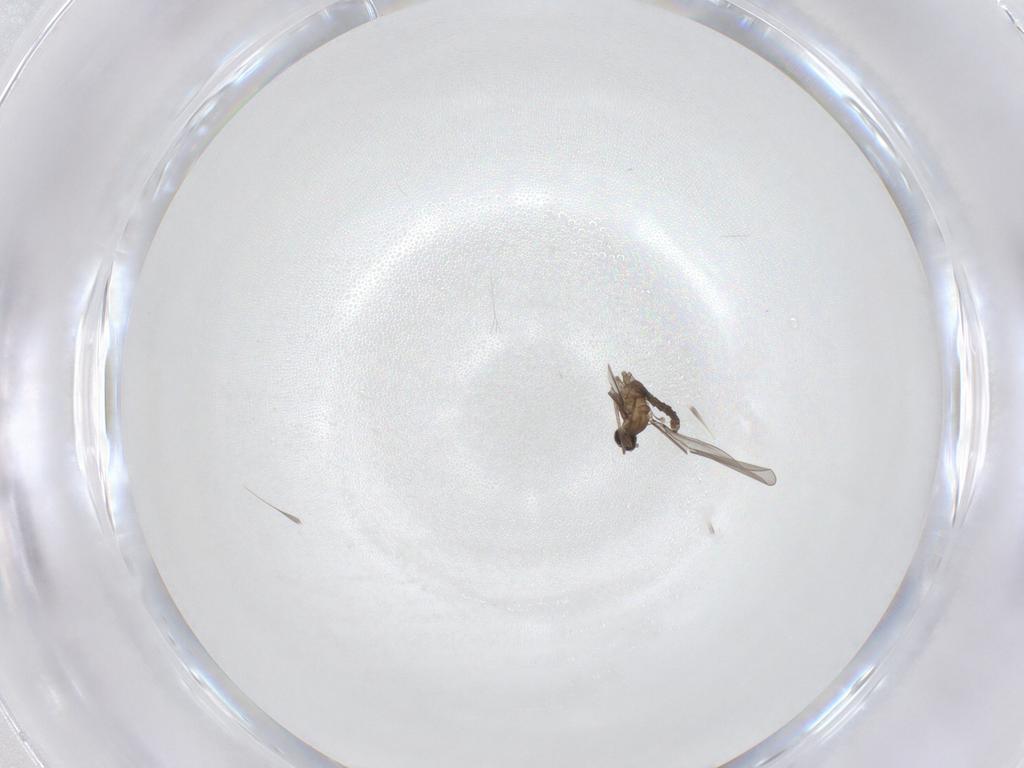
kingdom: Animalia
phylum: Arthropoda
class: Insecta
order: Diptera
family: Cecidomyiidae
